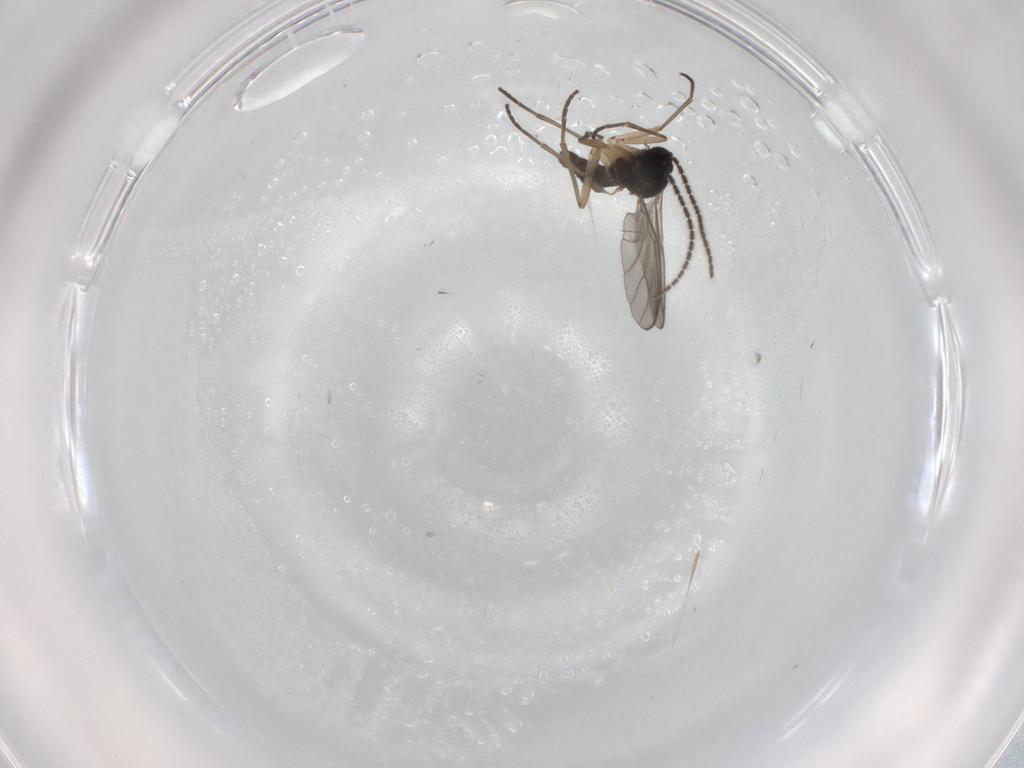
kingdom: Animalia
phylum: Arthropoda
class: Insecta
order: Diptera
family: Sciaridae
